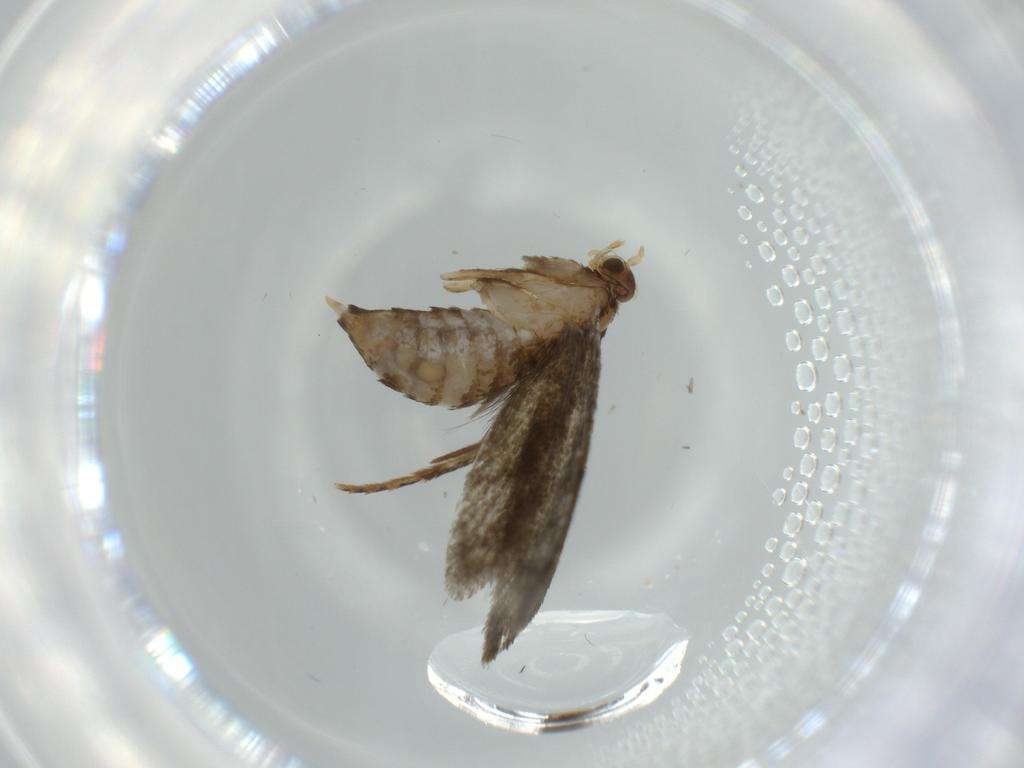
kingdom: Animalia
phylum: Arthropoda
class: Insecta
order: Lepidoptera
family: Tineidae
